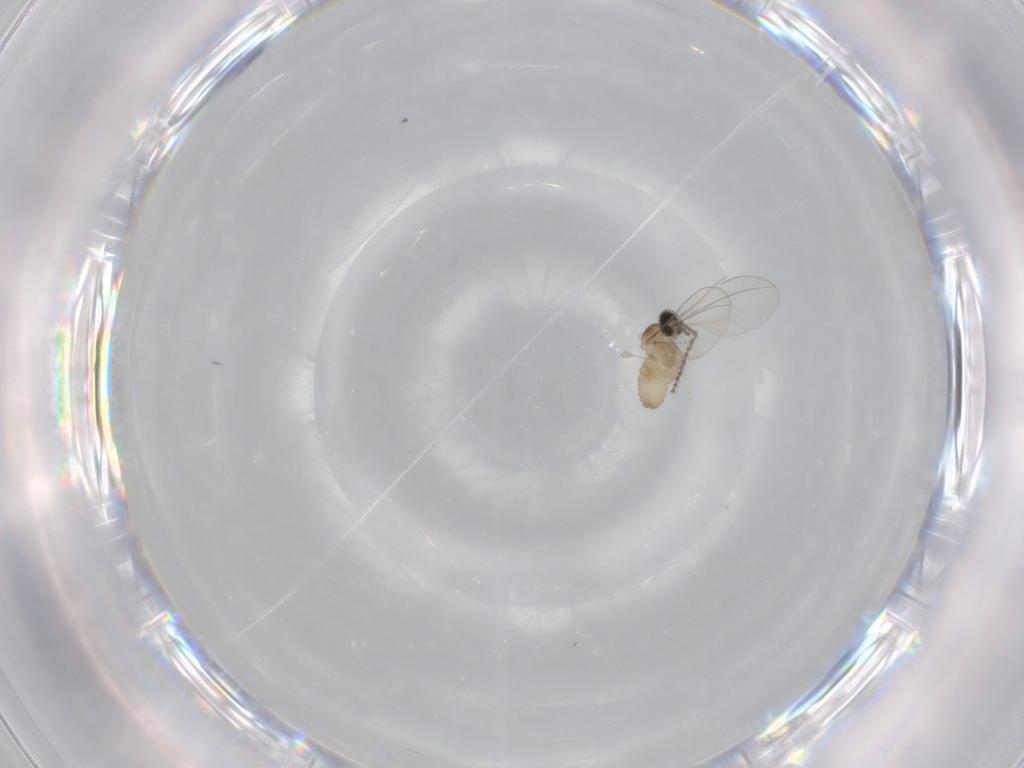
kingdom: Animalia
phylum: Arthropoda
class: Insecta
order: Diptera
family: Cecidomyiidae
